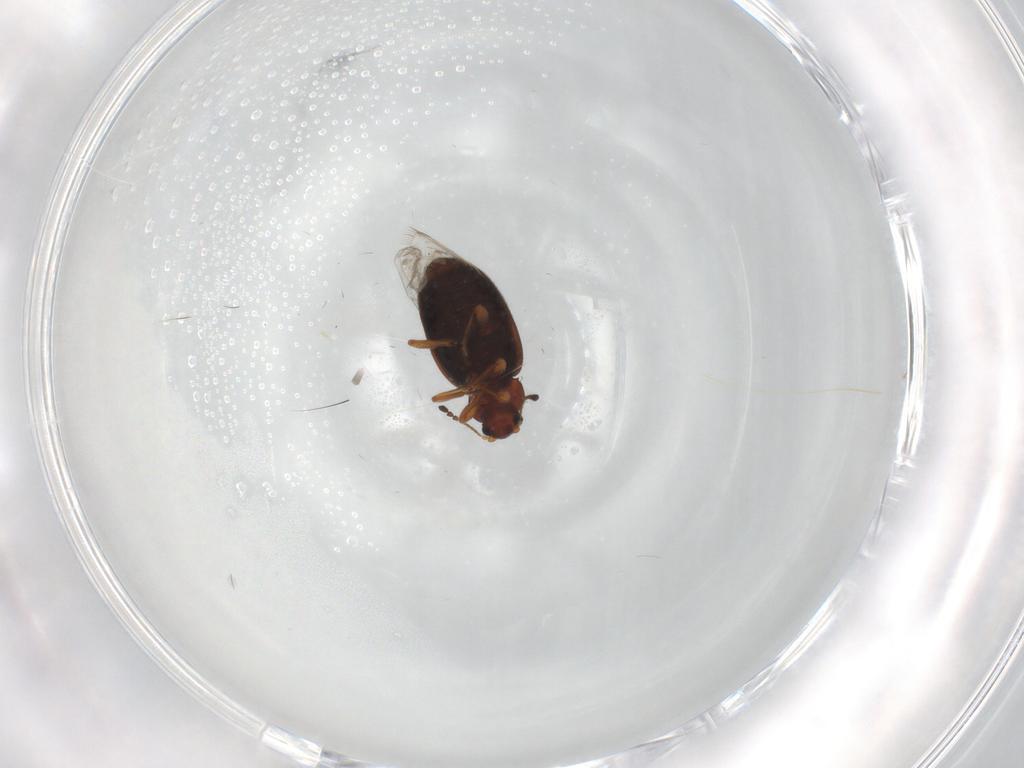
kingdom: Animalia
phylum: Arthropoda
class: Insecta
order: Coleoptera
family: Latridiidae
